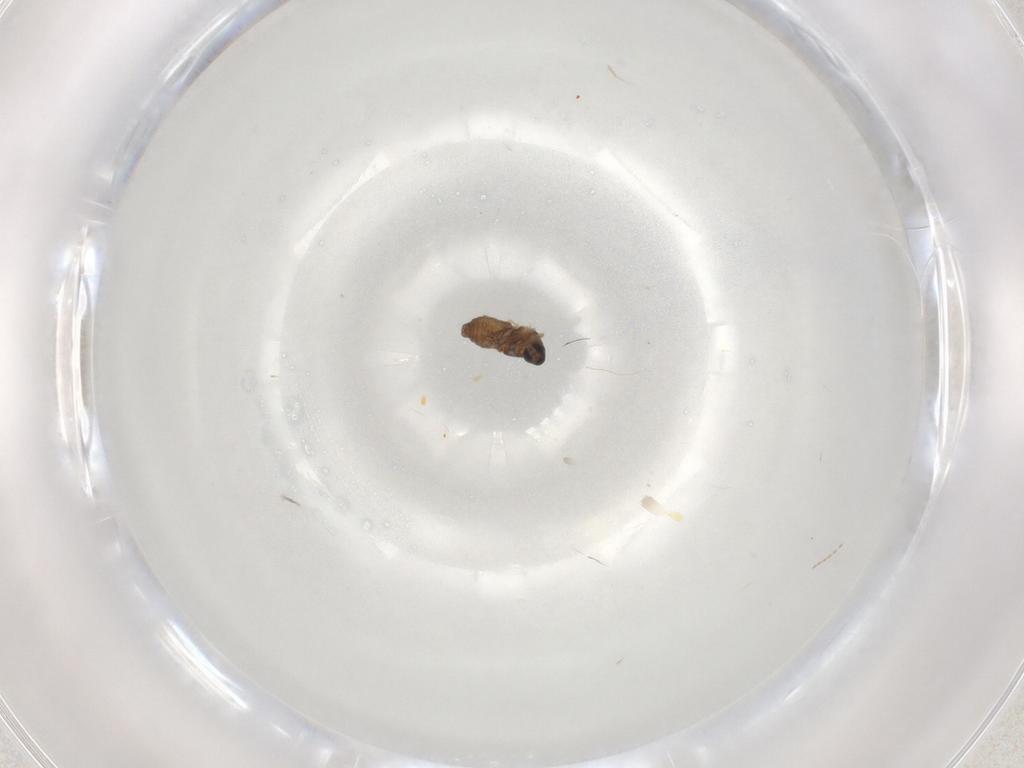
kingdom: Animalia
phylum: Arthropoda
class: Insecta
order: Diptera
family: Cecidomyiidae
